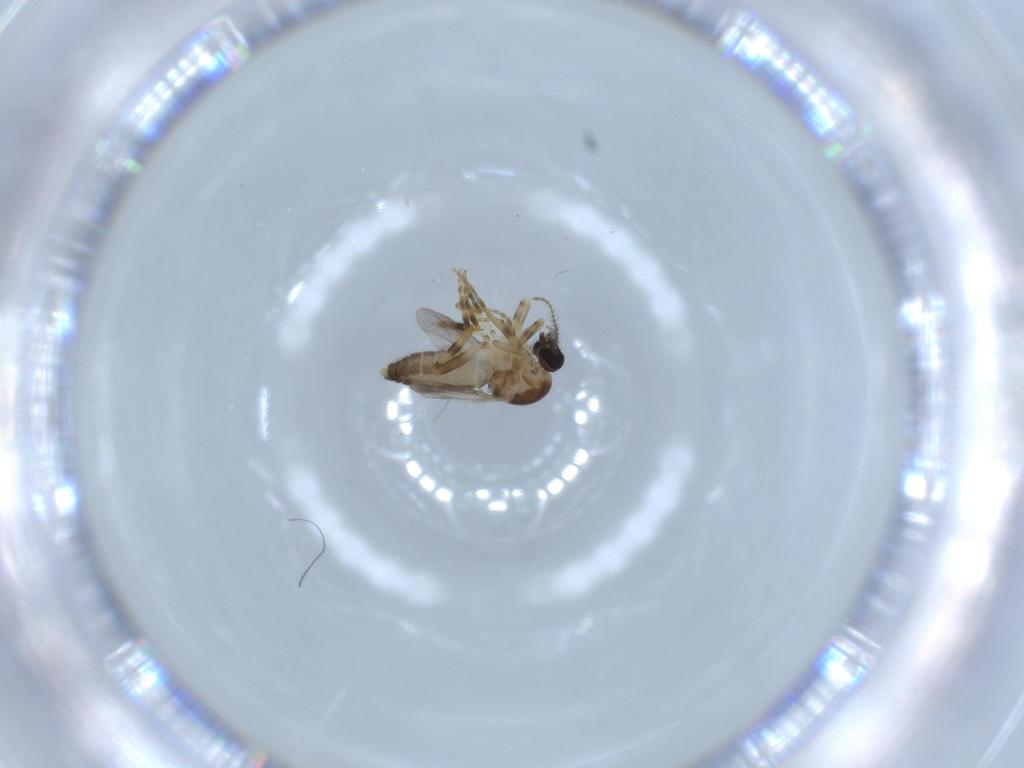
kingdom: Animalia
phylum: Arthropoda
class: Insecta
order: Diptera
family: Ceratopogonidae
